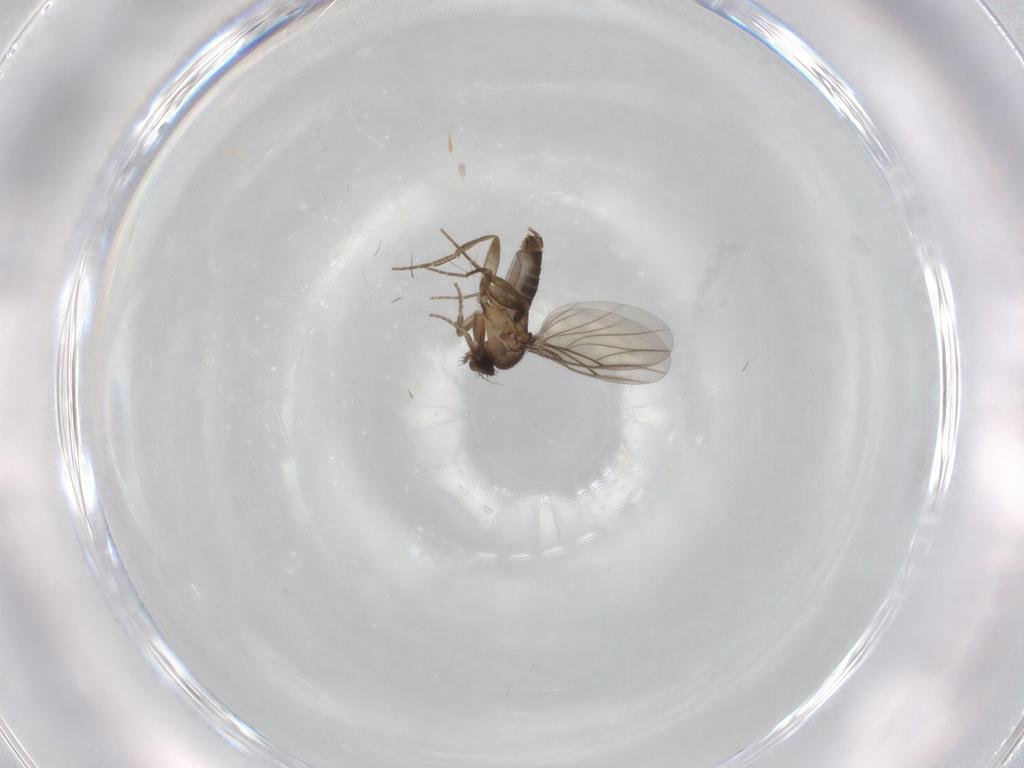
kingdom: Animalia
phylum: Arthropoda
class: Insecta
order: Diptera
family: Phoridae
